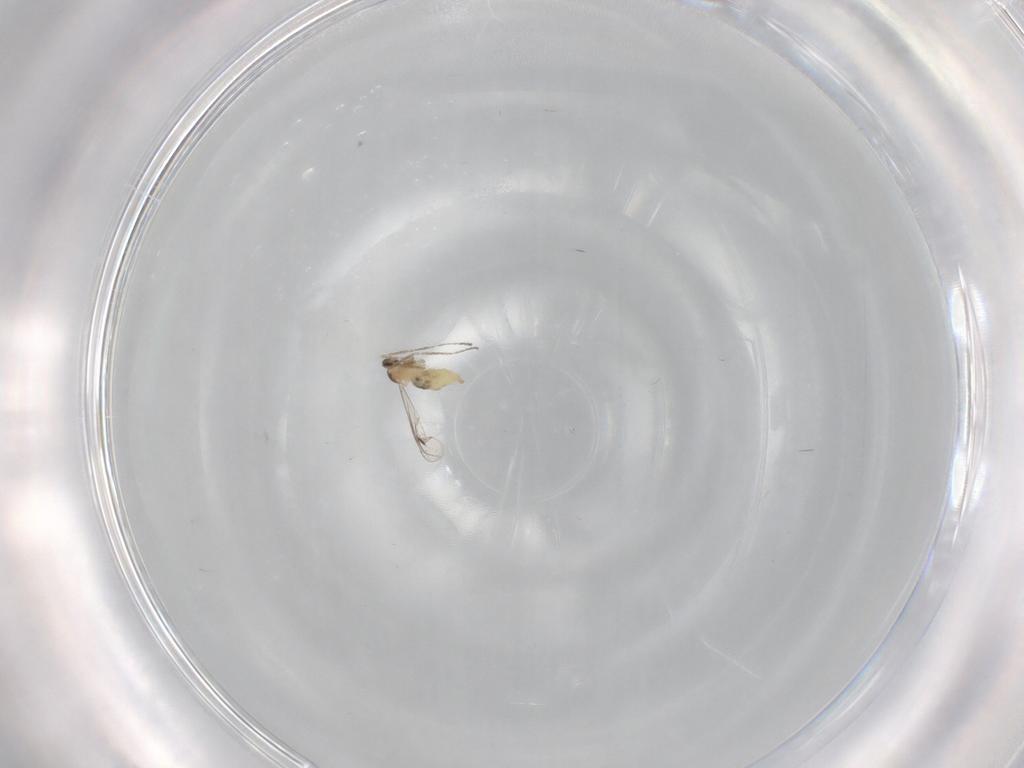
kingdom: Animalia
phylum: Arthropoda
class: Insecta
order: Diptera
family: Cecidomyiidae
